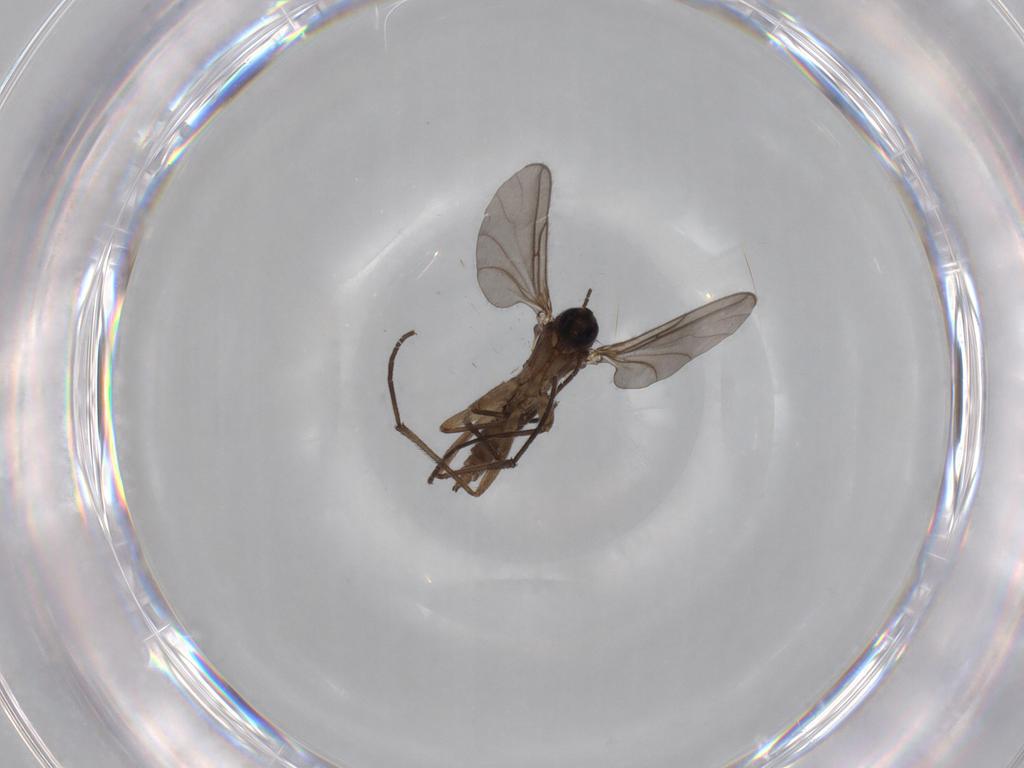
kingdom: Animalia
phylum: Arthropoda
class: Insecta
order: Diptera
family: Sciaridae
